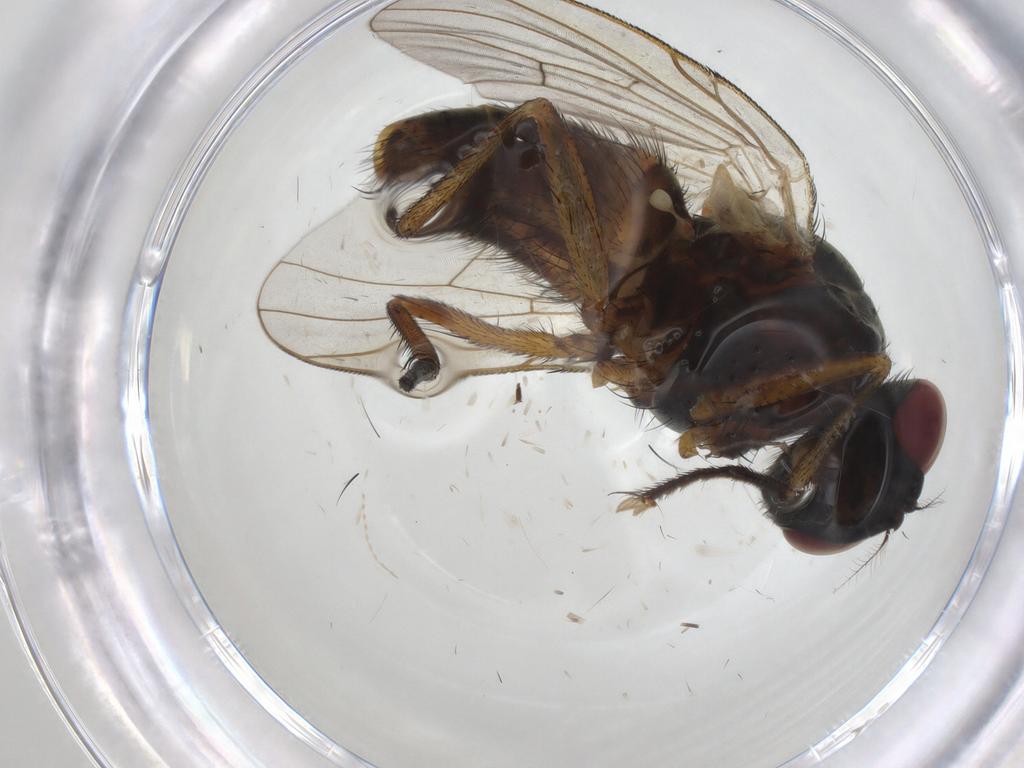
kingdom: Animalia
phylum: Arthropoda
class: Insecta
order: Diptera
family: Muscidae
